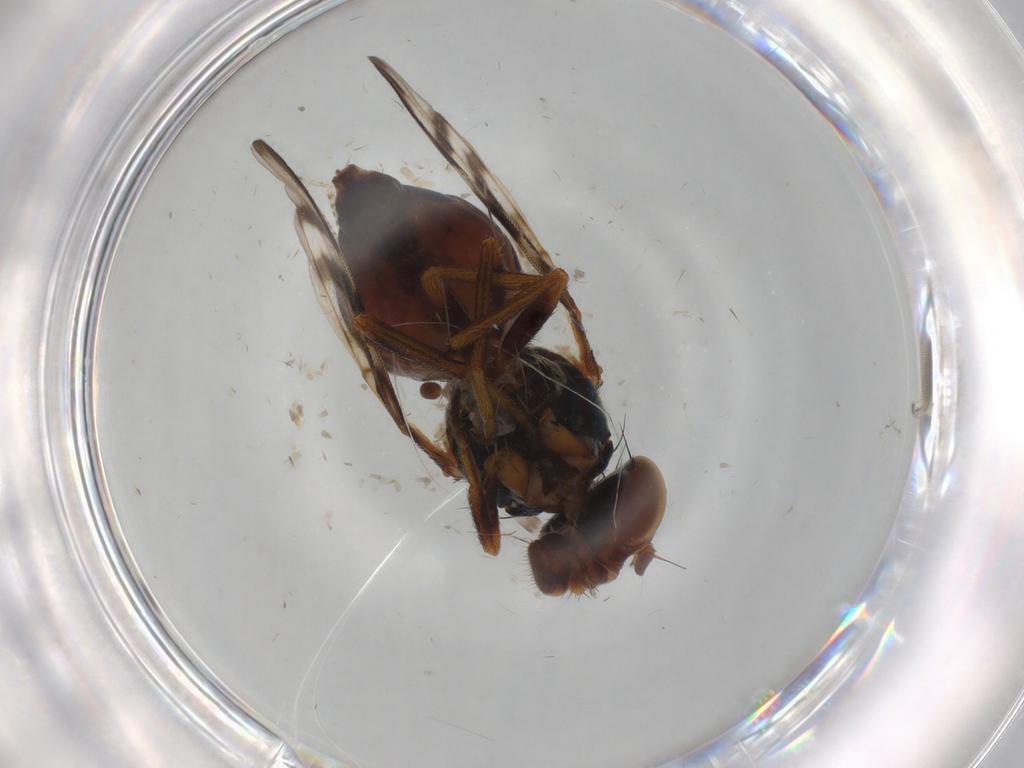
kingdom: Animalia
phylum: Arthropoda
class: Insecta
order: Diptera
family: Platystomatidae
